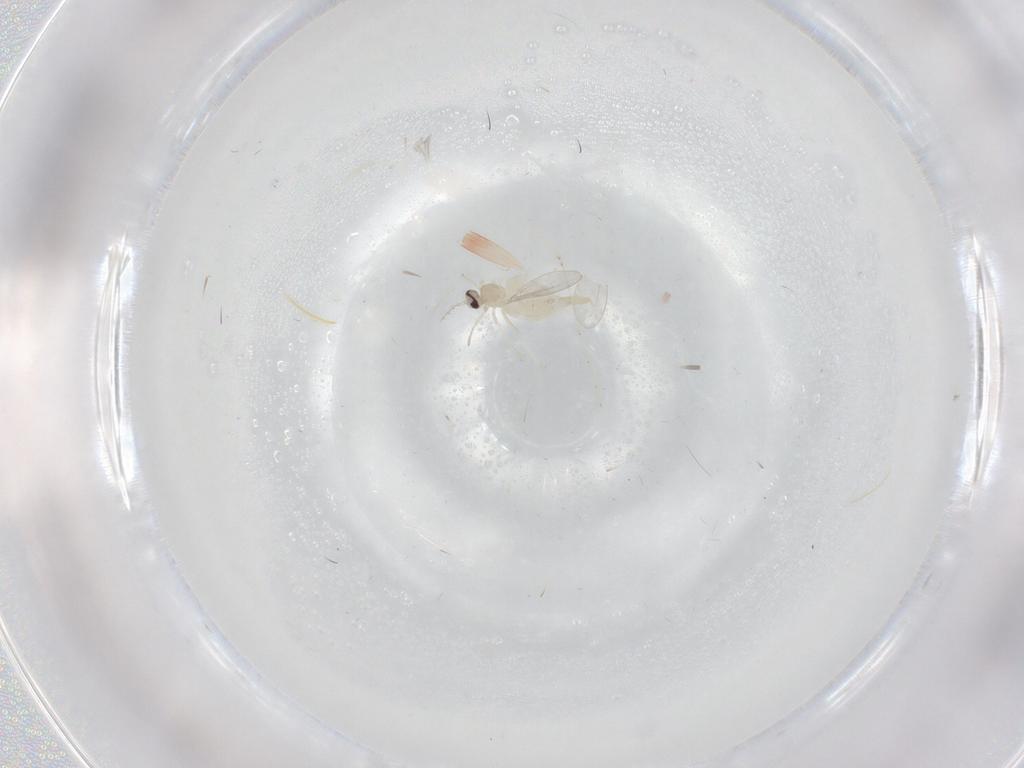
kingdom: Animalia
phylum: Arthropoda
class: Insecta
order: Diptera
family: Cecidomyiidae
